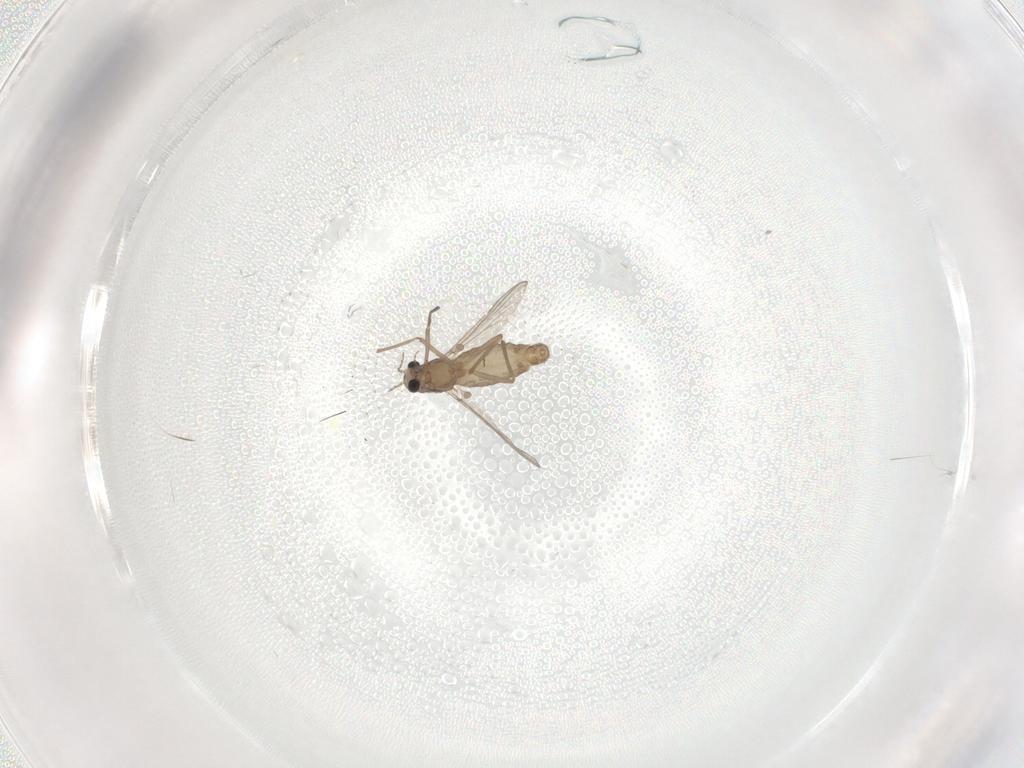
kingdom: Animalia
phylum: Arthropoda
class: Insecta
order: Diptera
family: Chironomidae
